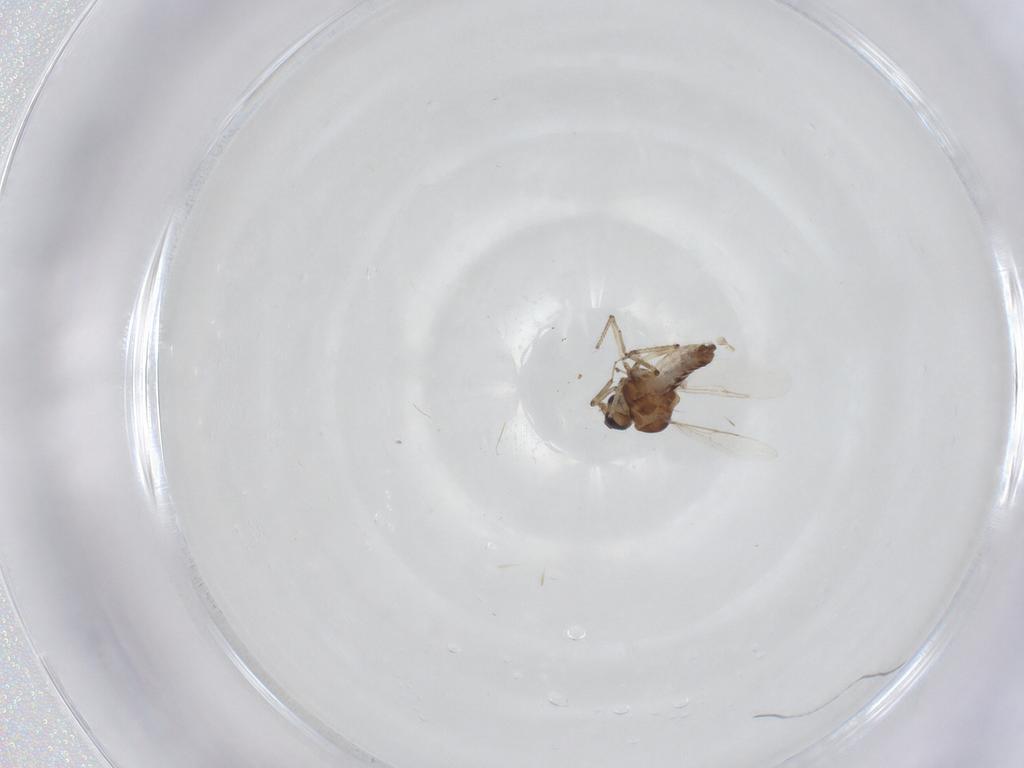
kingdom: Animalia
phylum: Arthropoda
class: Insecta
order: Diptera
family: Ceratopogonidae
